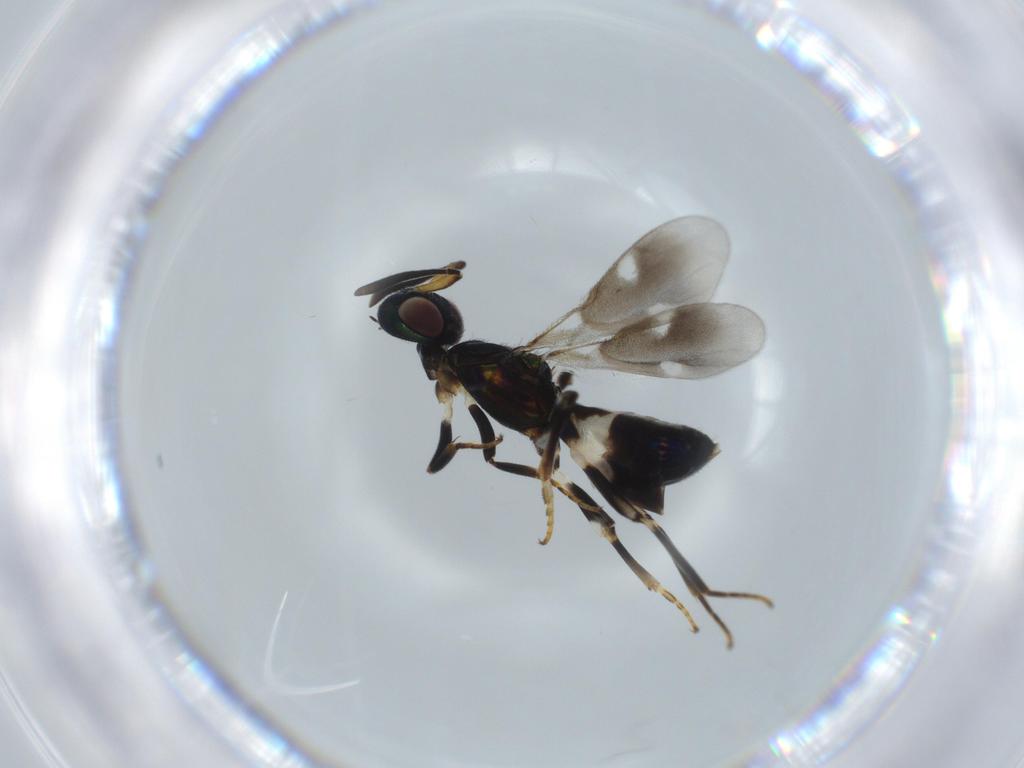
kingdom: Animalia
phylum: Arthropoda
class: Insecta
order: Hymenoptera
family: Eupelmidae
